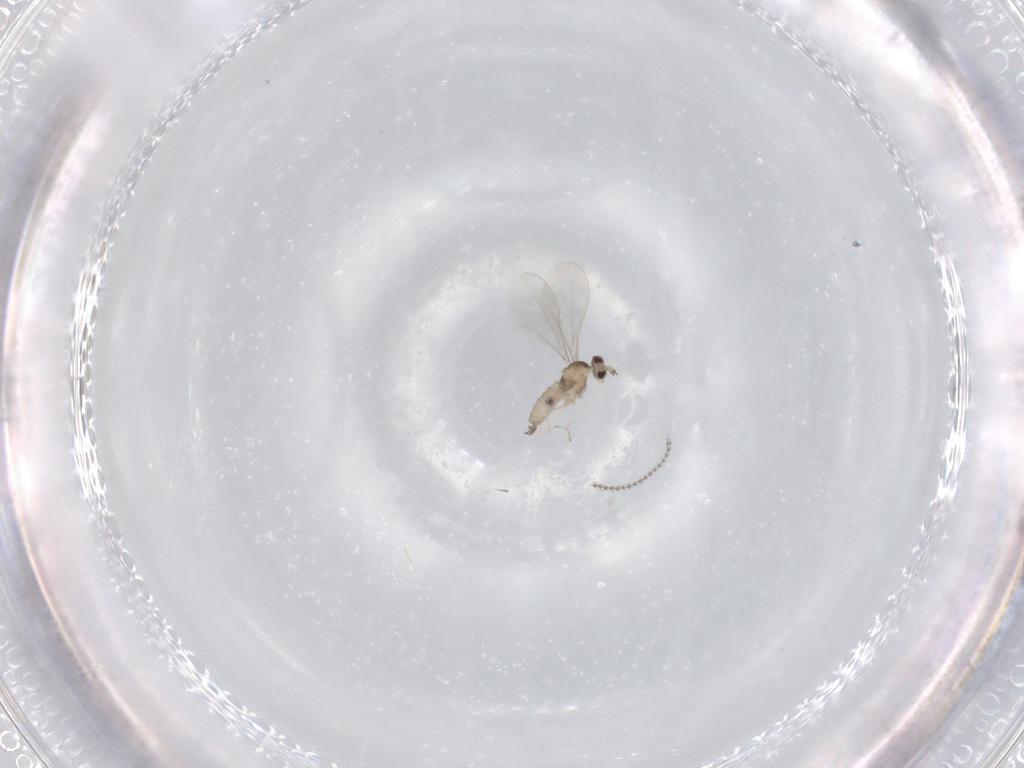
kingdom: Animalia
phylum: Arthropoda
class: Insecta
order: Diptera
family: Cecidomyiidae
